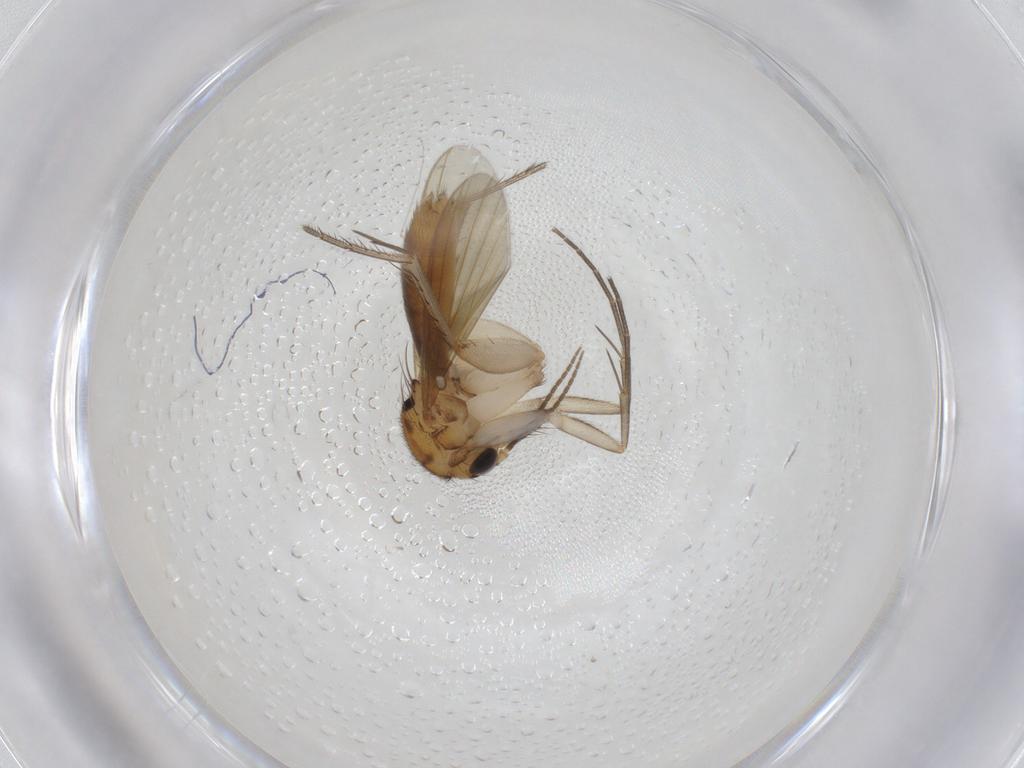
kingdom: Animalia
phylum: Arthropoda
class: Insecta
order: Diptera
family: Mycetophilidae
